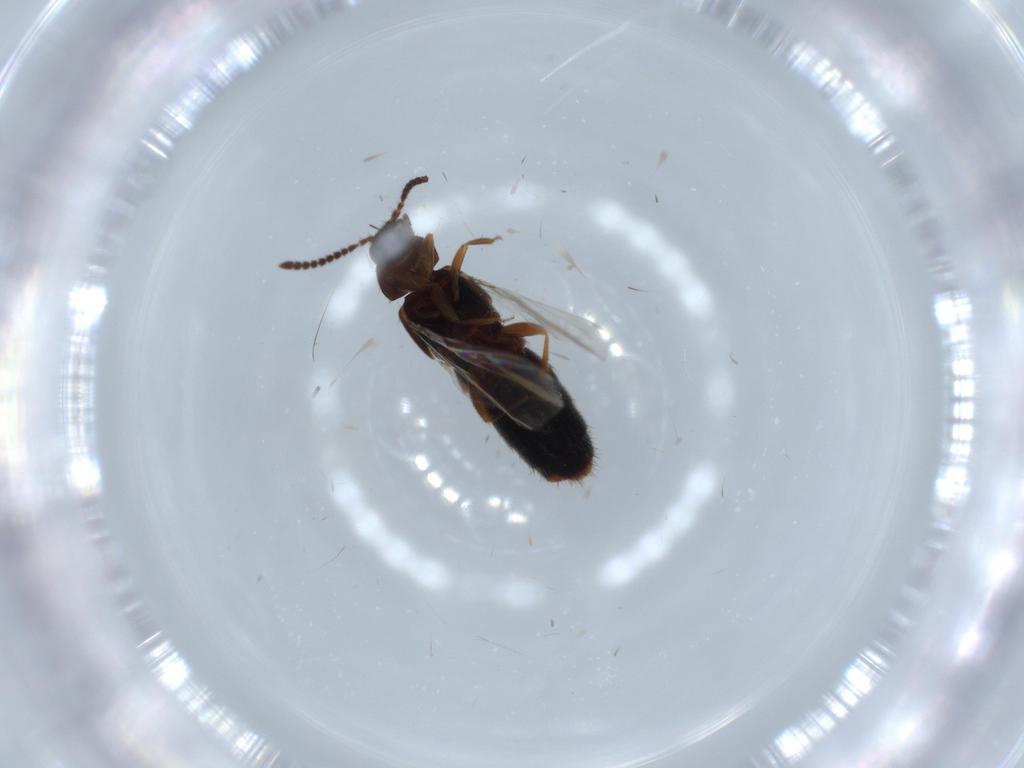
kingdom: Animalia
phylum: Arthropoda
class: Insecta
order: Coleoptera
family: Scraptiidae
